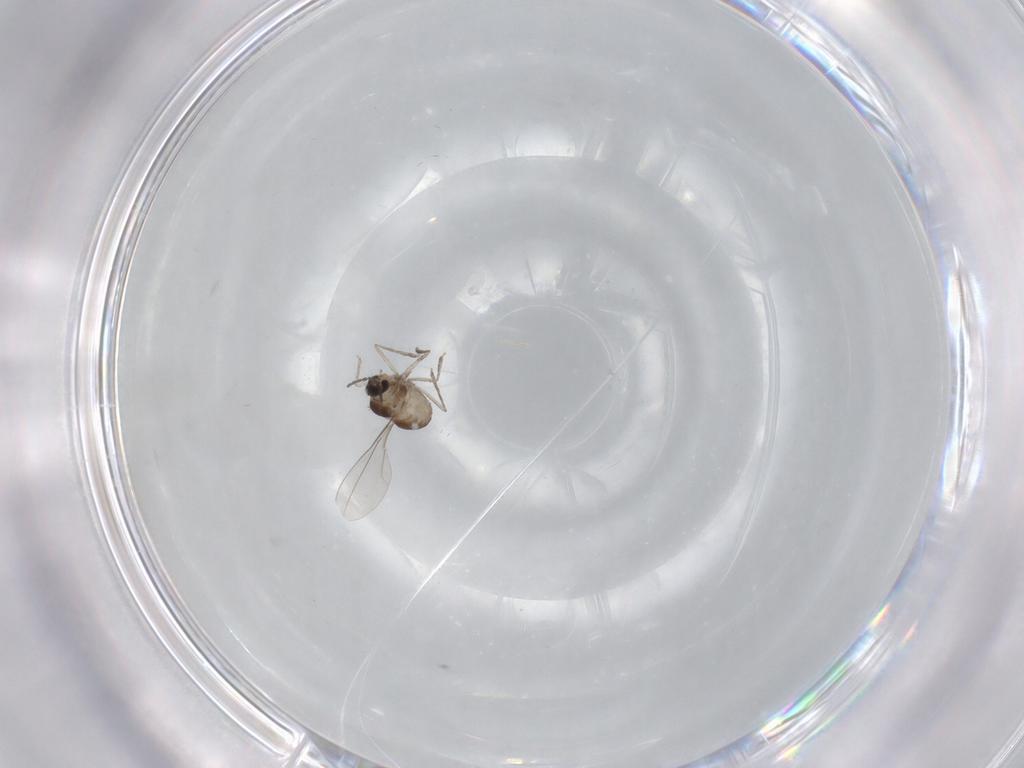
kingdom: Animalia
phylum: Arthropoda
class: Insecta
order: Diptera
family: Cecidomyiidae
